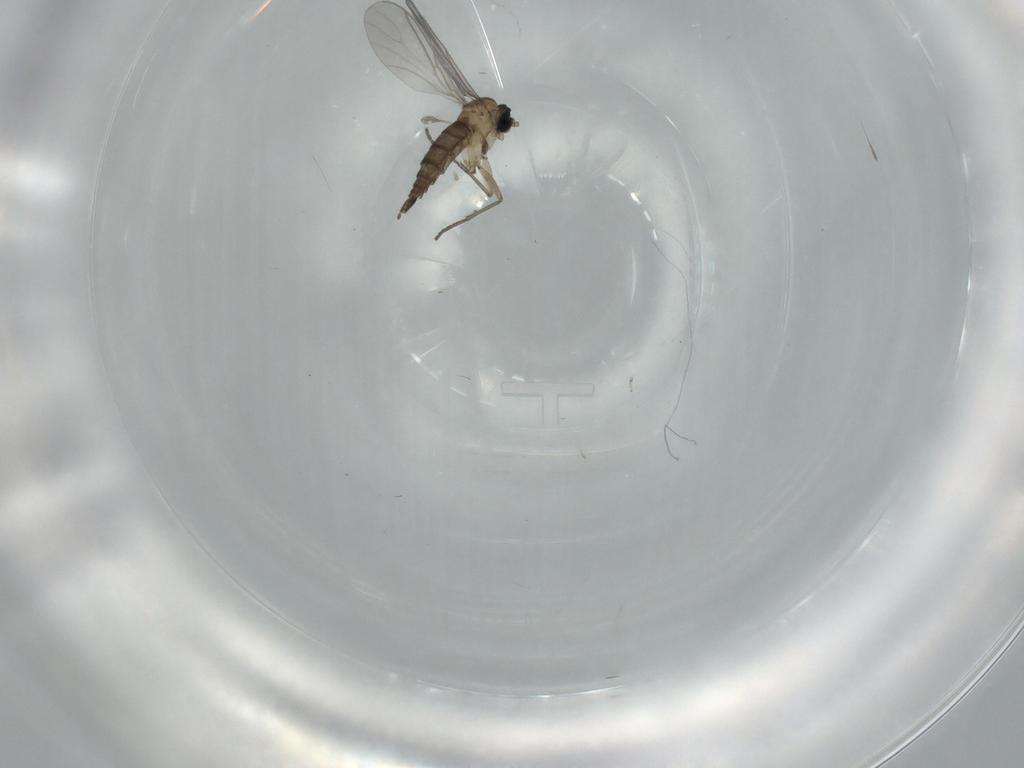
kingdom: Animalia
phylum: Arthropoda
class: Insecta
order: Diptera
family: Sciaridae
